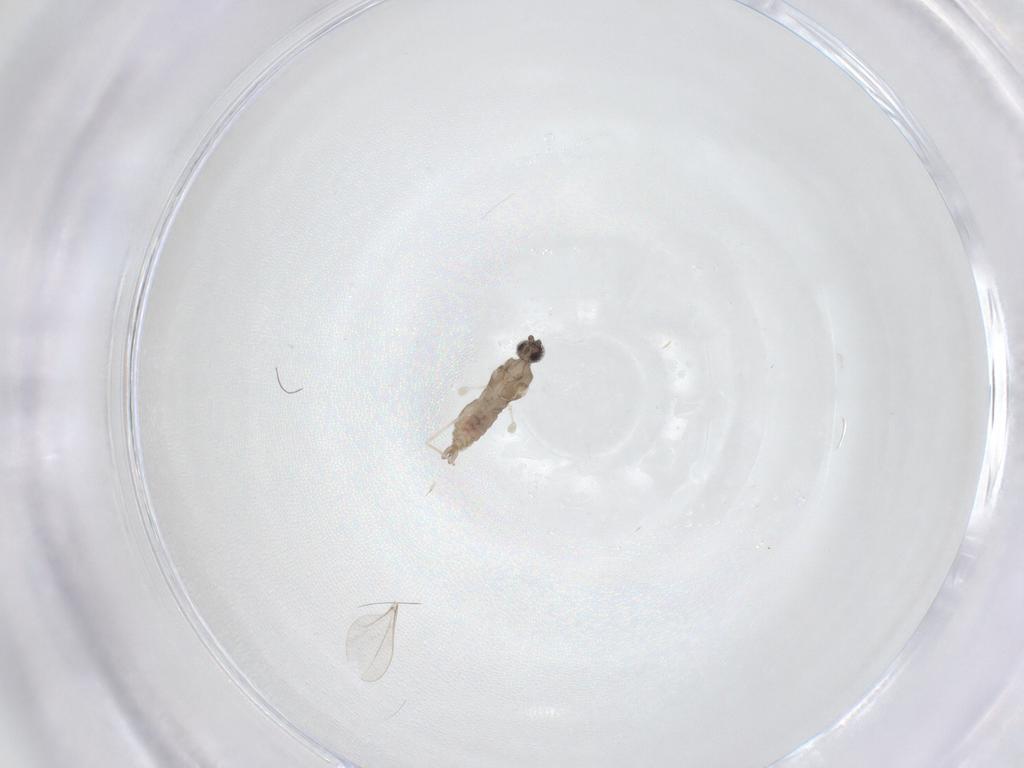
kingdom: Animalia
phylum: Arthropoda
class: Insecta
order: Diptera
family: Cecidomyiidae
